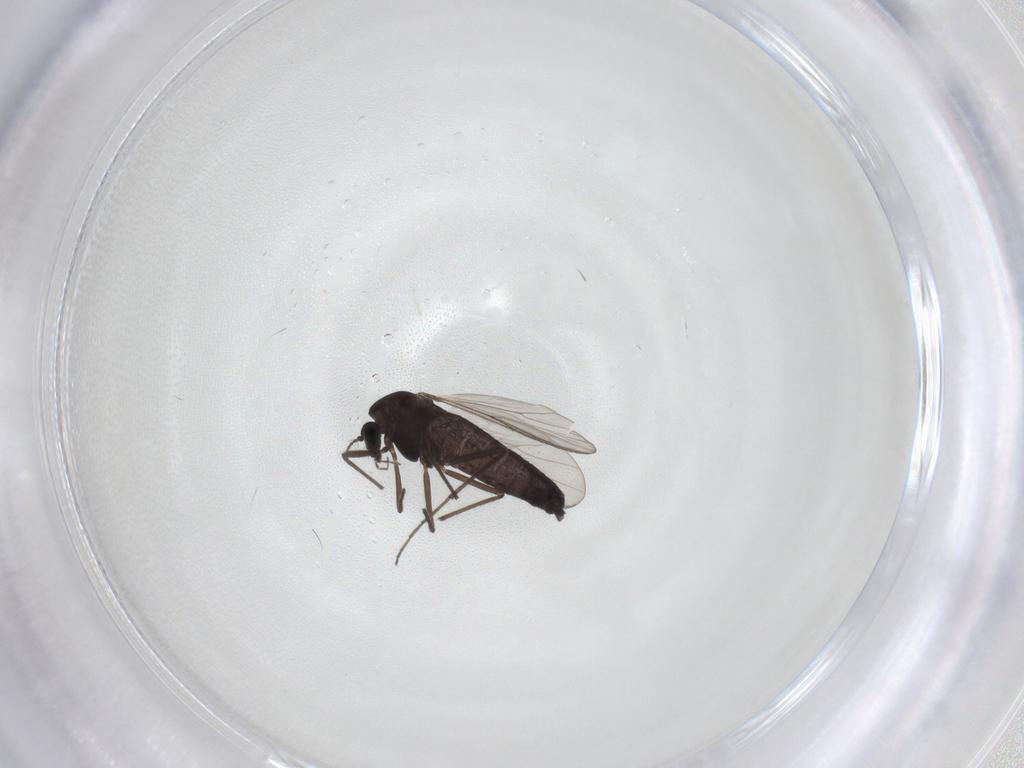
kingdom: Animalia
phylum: Arthropoda
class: Insecta
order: Diptera
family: Chironomidae
